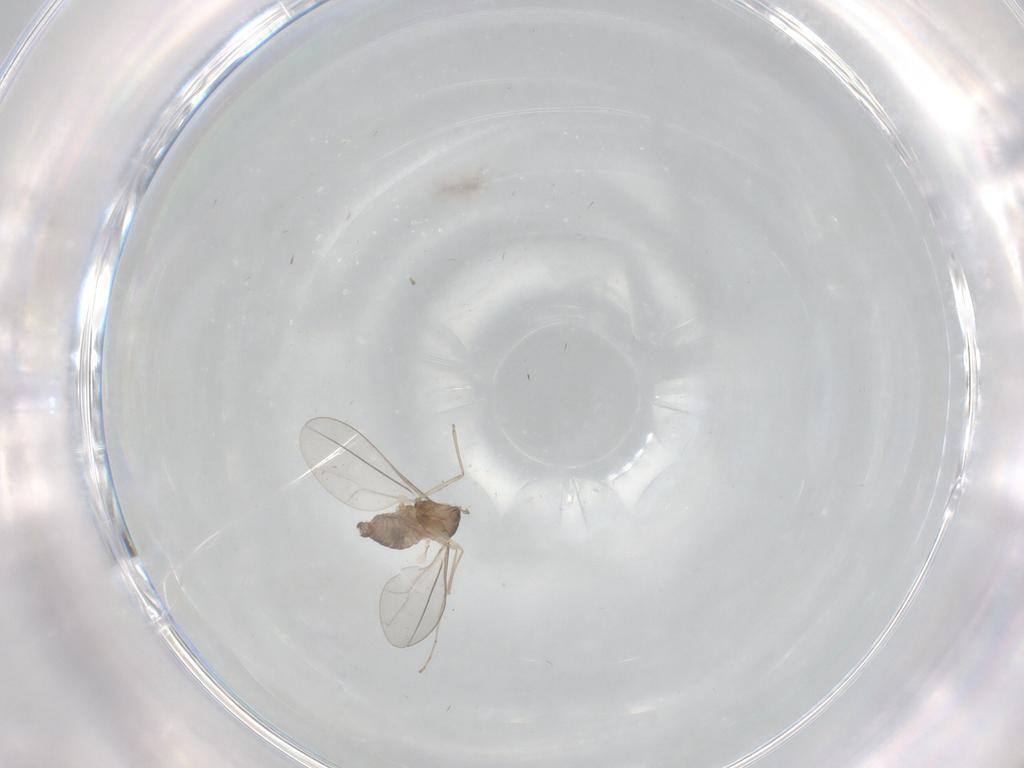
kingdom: Animalia
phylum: Arthropoda
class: Insecta
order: Diptera
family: Cecidomyiidae
